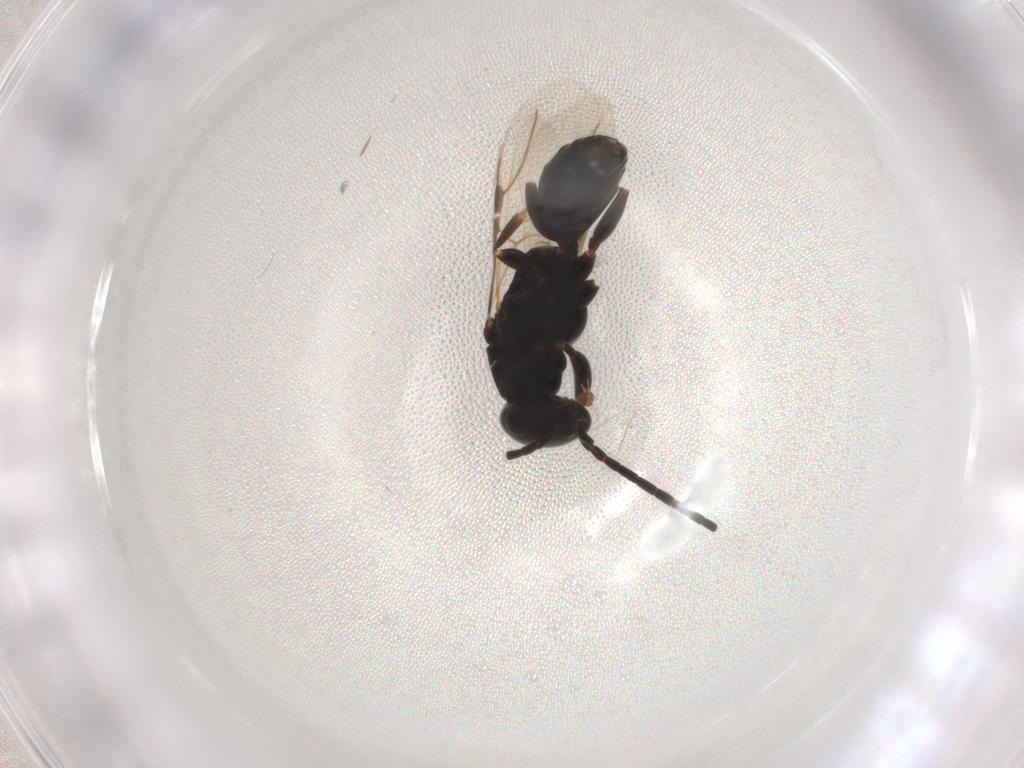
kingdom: Animalia
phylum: Arthropoda
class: Insecta
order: Hymenoptera
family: Bethylidae
